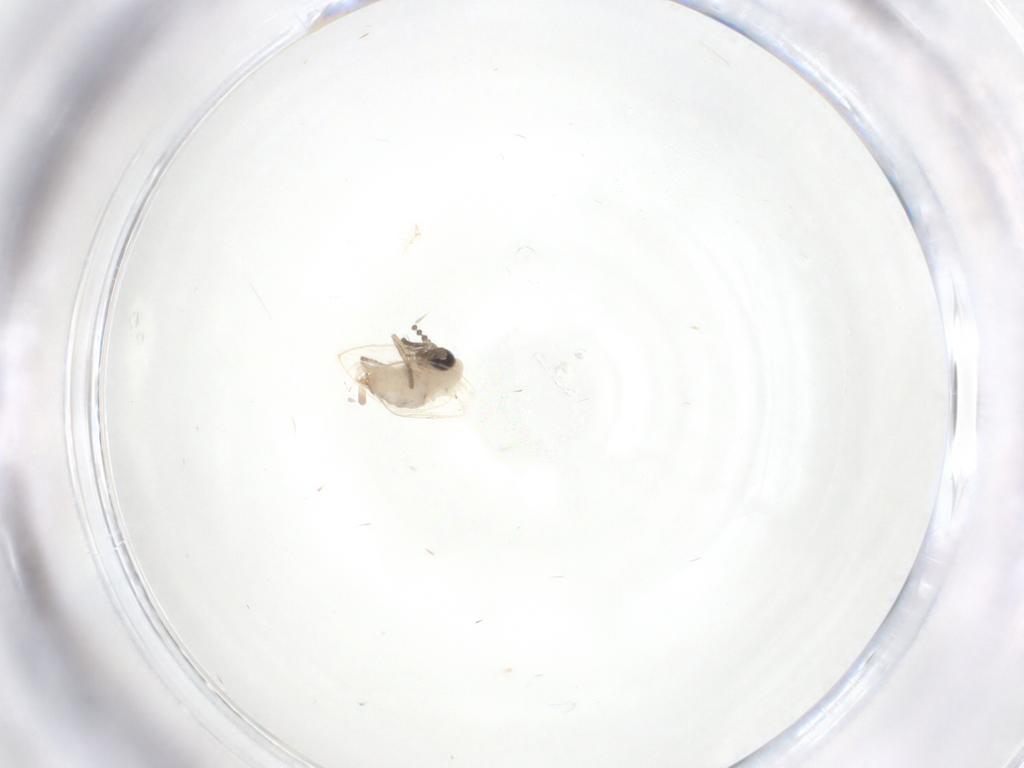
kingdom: Animalia
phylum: Arthropoda
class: Insecta
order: Diptera
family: Psychodidae
